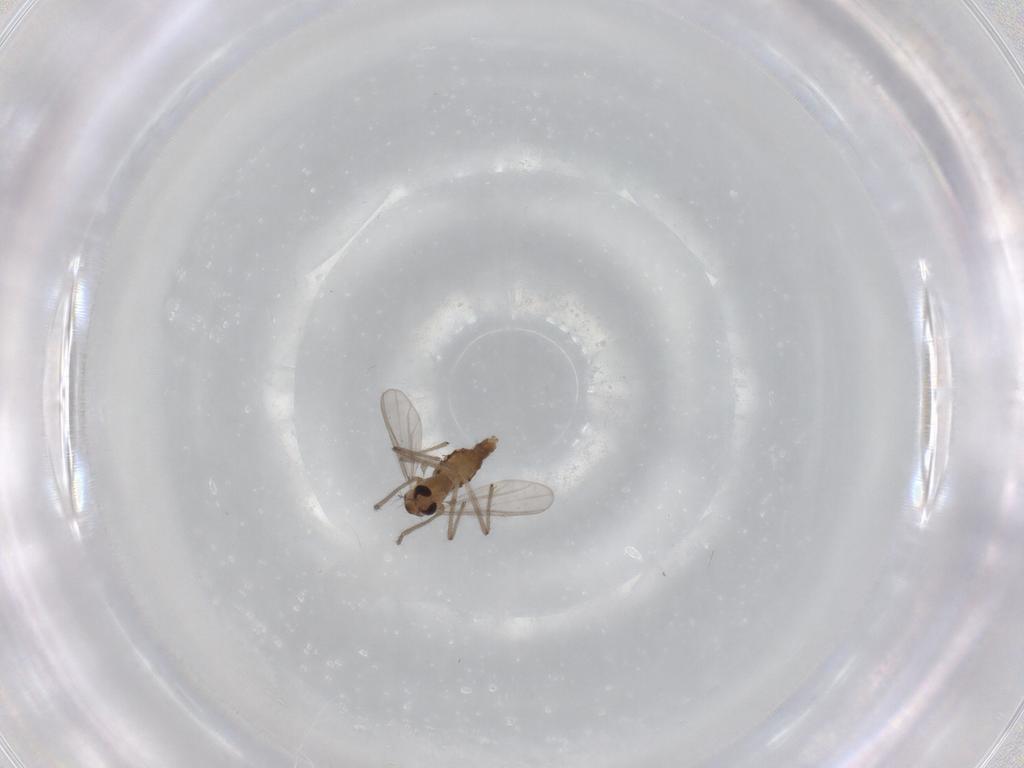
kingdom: Animalia
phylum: Arthropoda
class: Insecta
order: Diptera
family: Chironomidae
